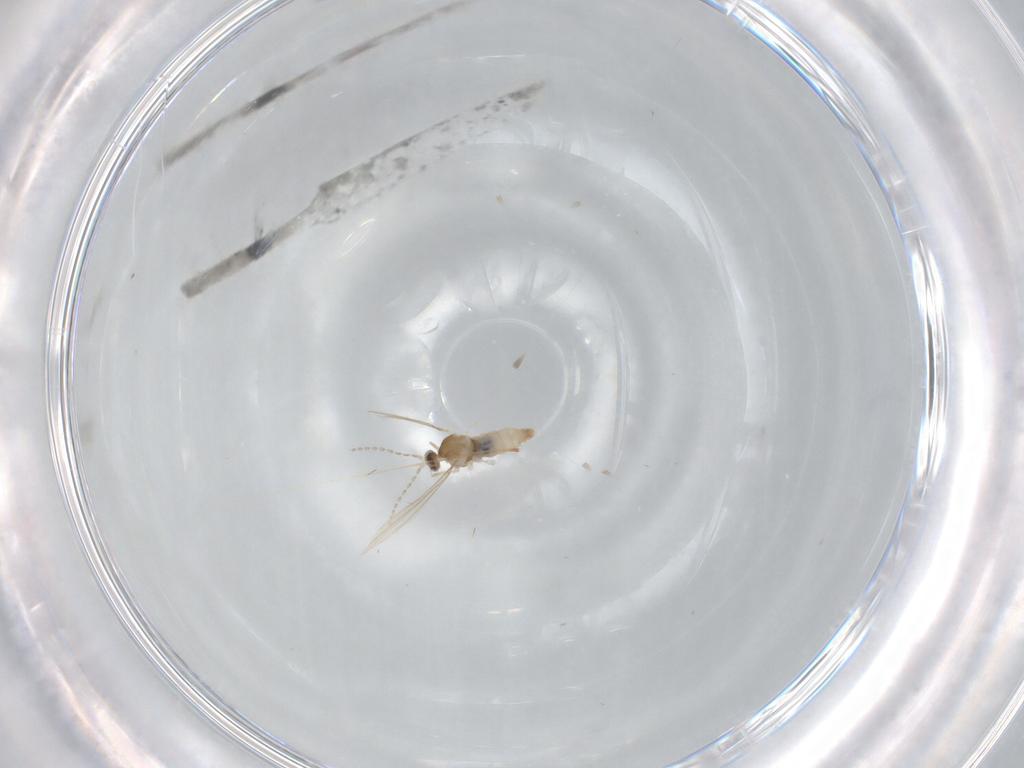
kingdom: Animalia
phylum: Arthropoda
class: Insecta
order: Diptera
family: Cecidomyiidae
